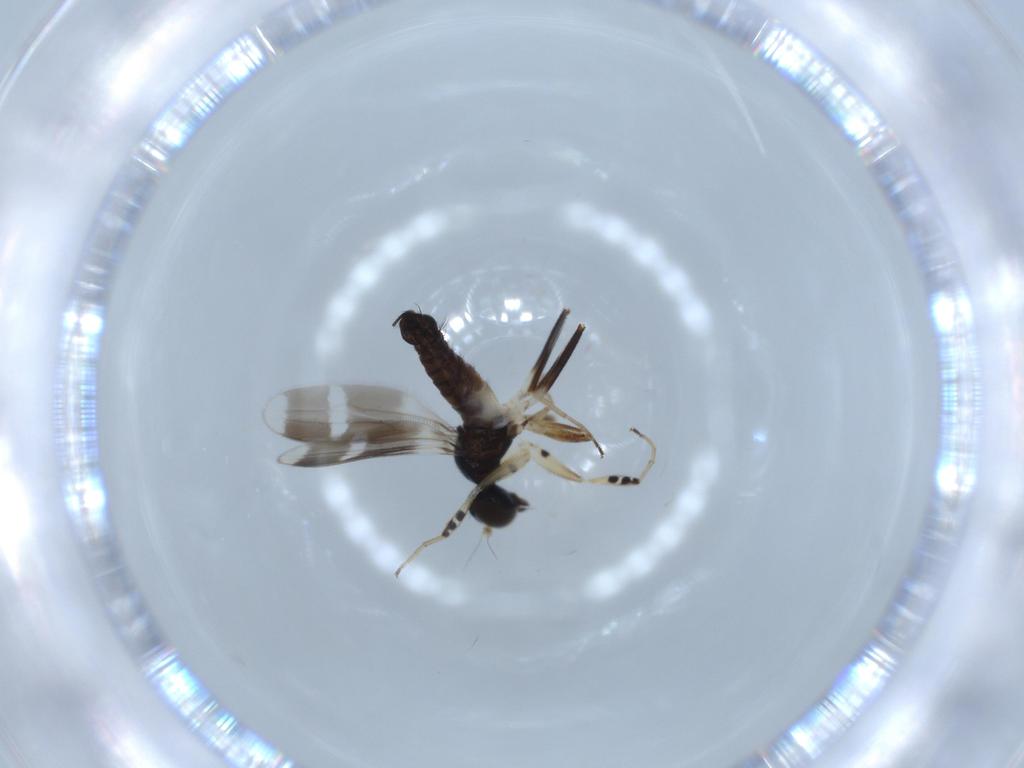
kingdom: Animalia
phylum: Arthropoda
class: Insecta
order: Diptera
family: Hybotidae
